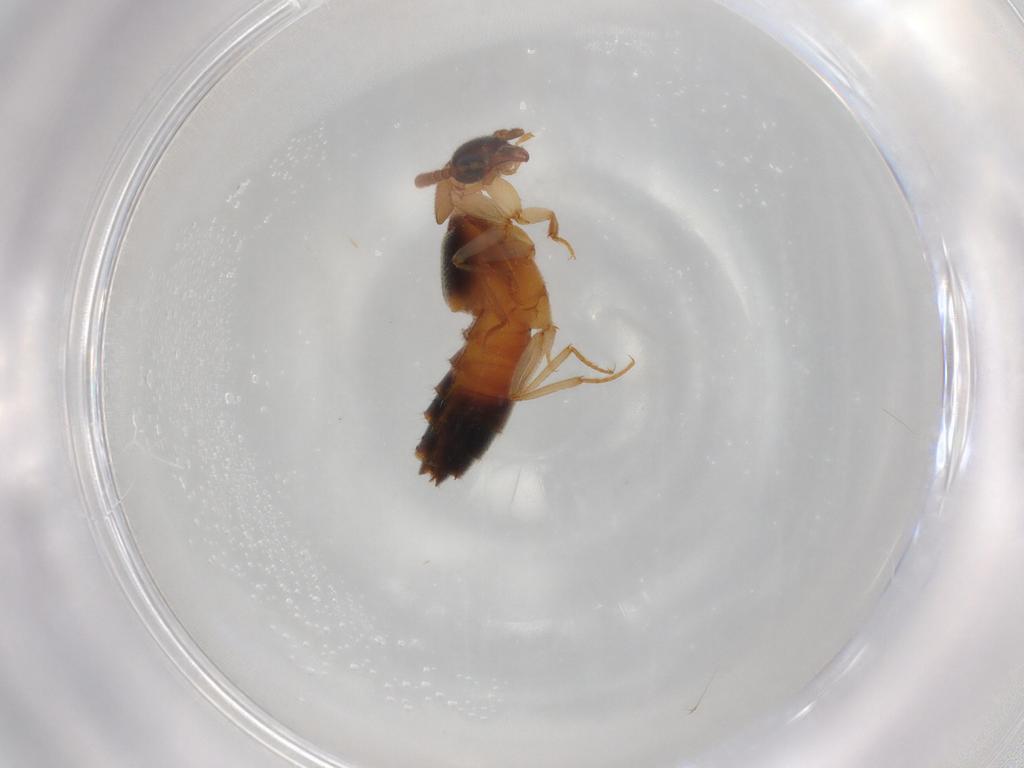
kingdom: Animalia
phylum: Arthropoda
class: Insecta
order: Coleoptera
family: Staphylinidae
